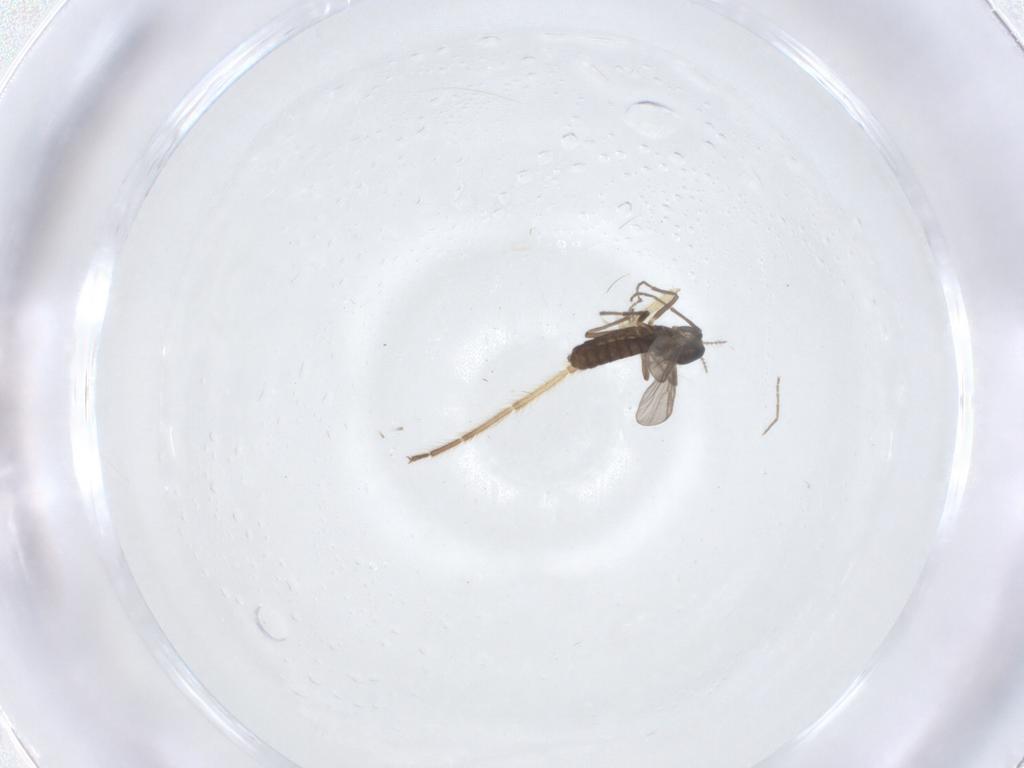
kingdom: Animalia
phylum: Arthropoda
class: Insecta
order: Diptera
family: Chironomidae
